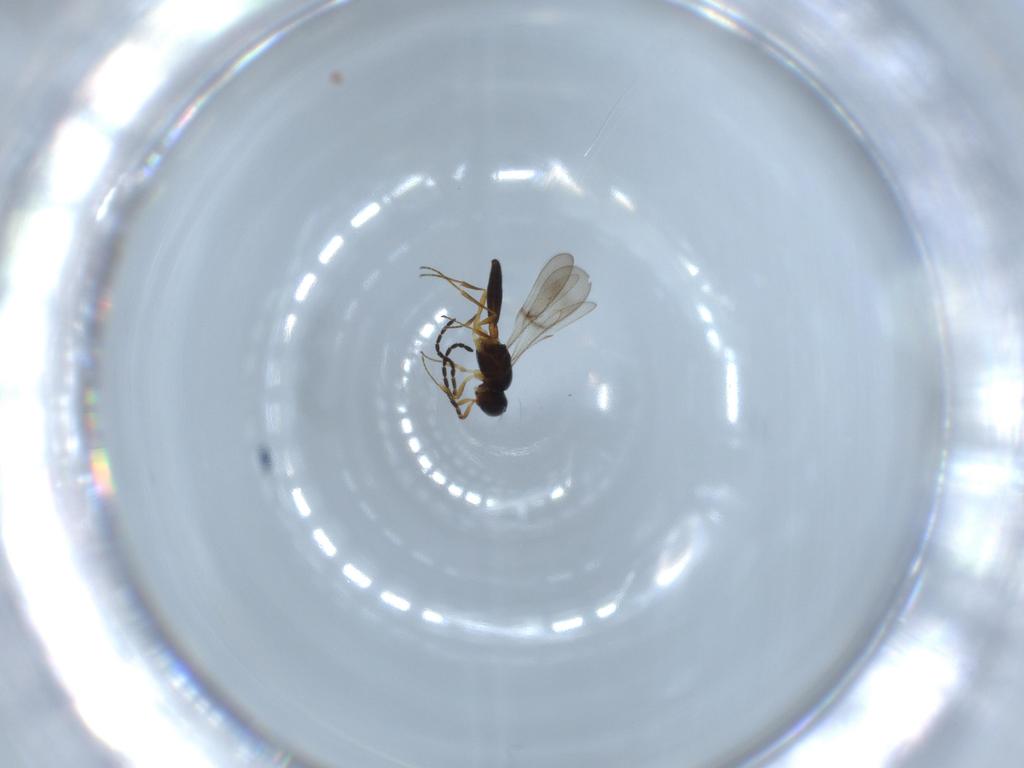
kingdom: Animalia
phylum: Arthropoda
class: Insecta
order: Hymenoptera
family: Scelionidae
